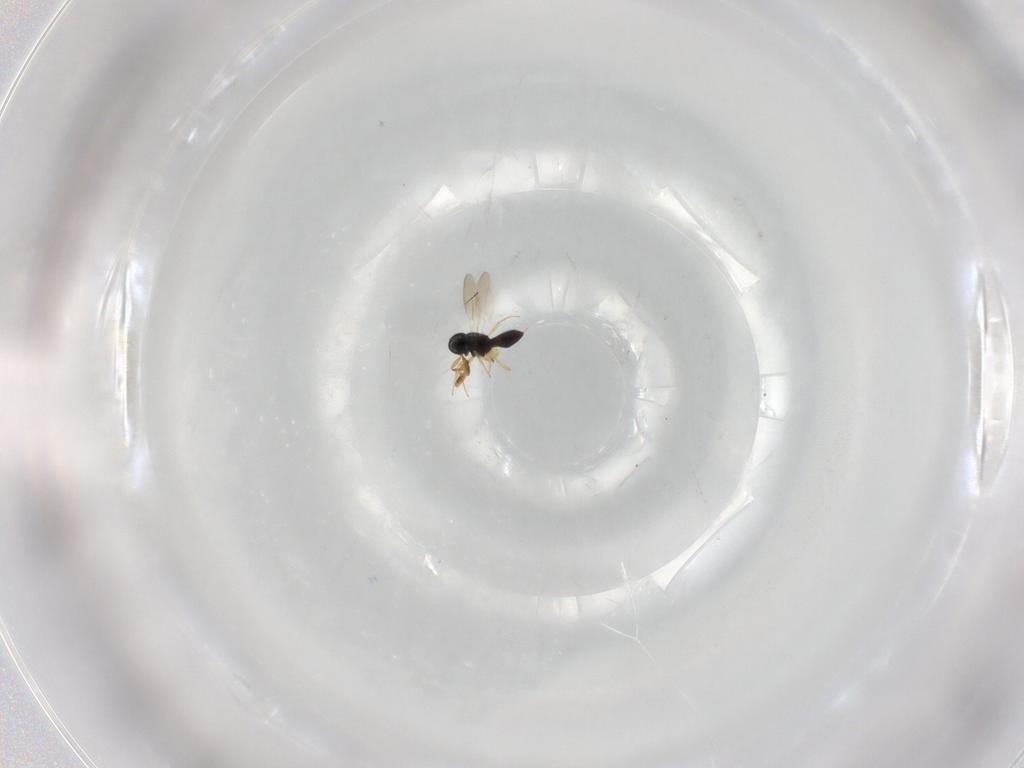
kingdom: Animalia
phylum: Arthropoda
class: Insecta
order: Hymenoptera
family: Scelionidae
